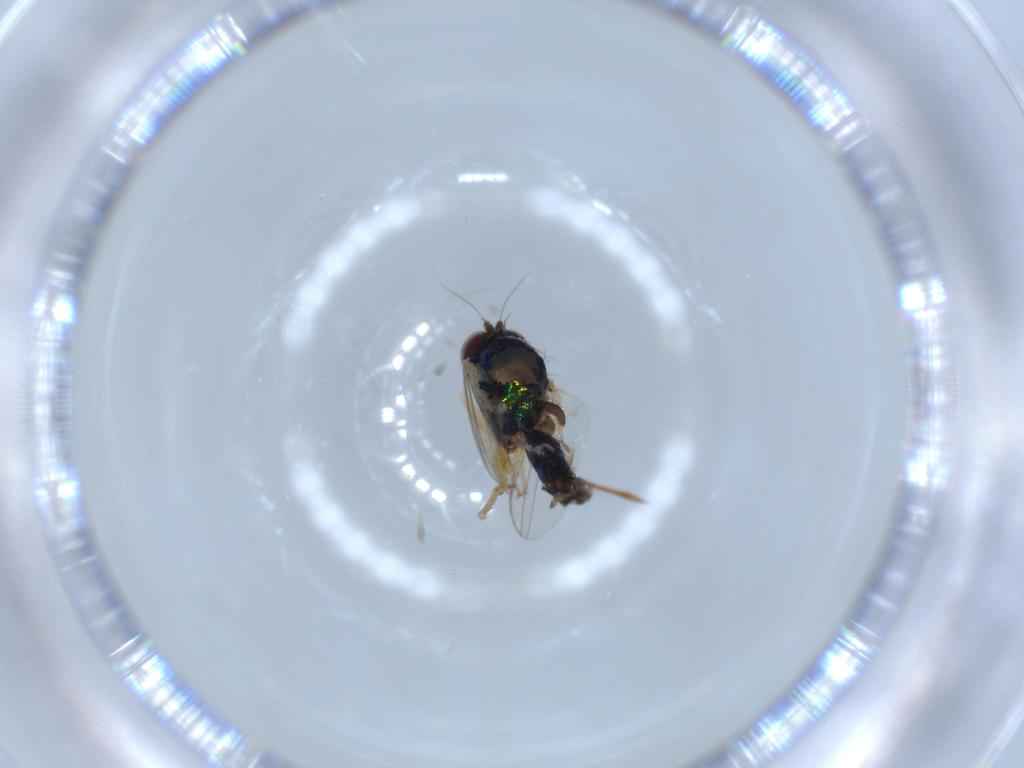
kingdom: Animalia
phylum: Arthropoda
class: Insecta
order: Diptera
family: Dolichopodidae
